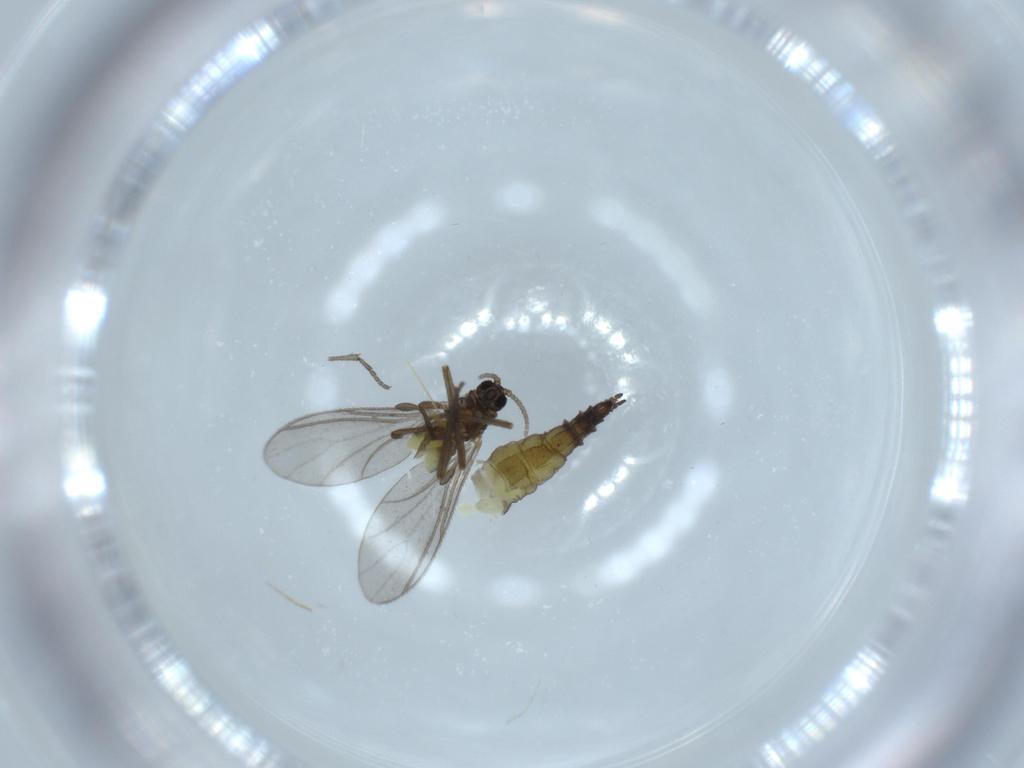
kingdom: Animalia
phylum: Arthropoda
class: Insecta
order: Diptera
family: Sciaridae
